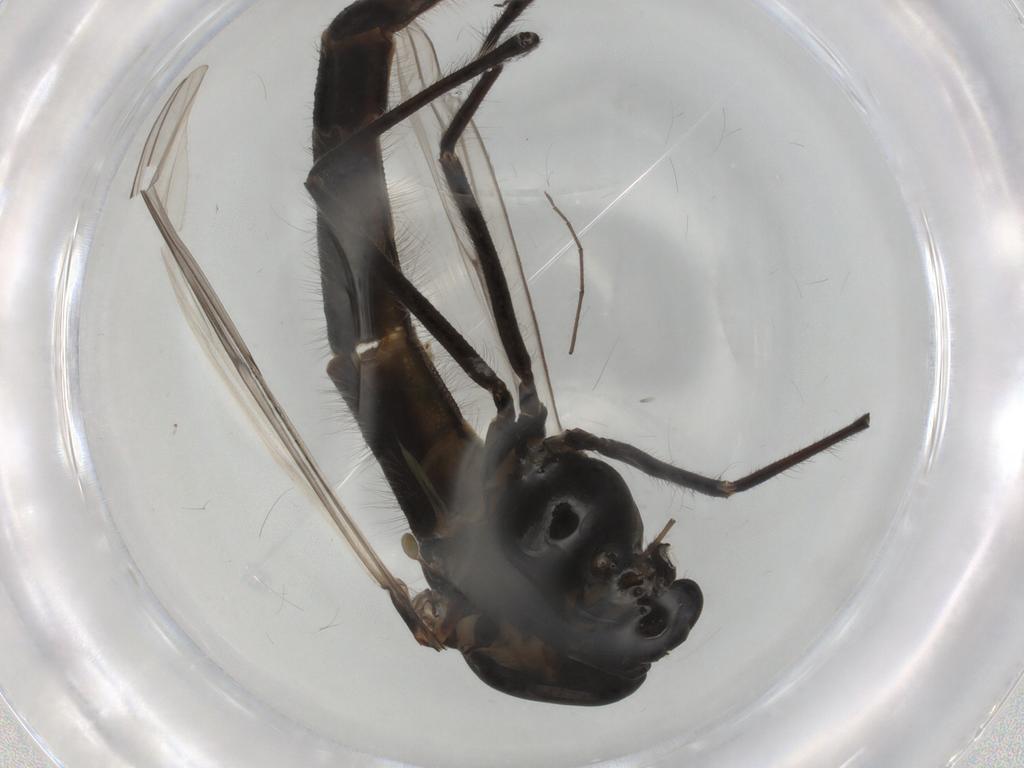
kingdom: Animalia
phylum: Arthropoda
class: Insecta
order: Diptera
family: Chironomidae
